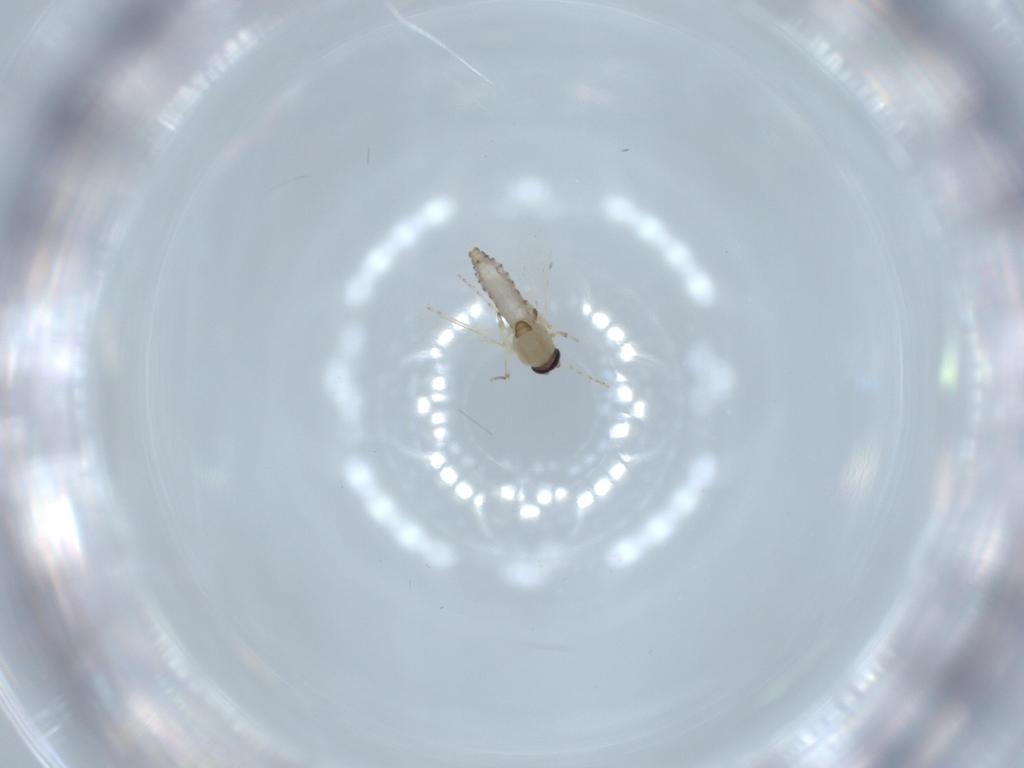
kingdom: Animalia
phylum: Arthropoda
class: Insecta
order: Diptera
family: Ceratopogonidae
